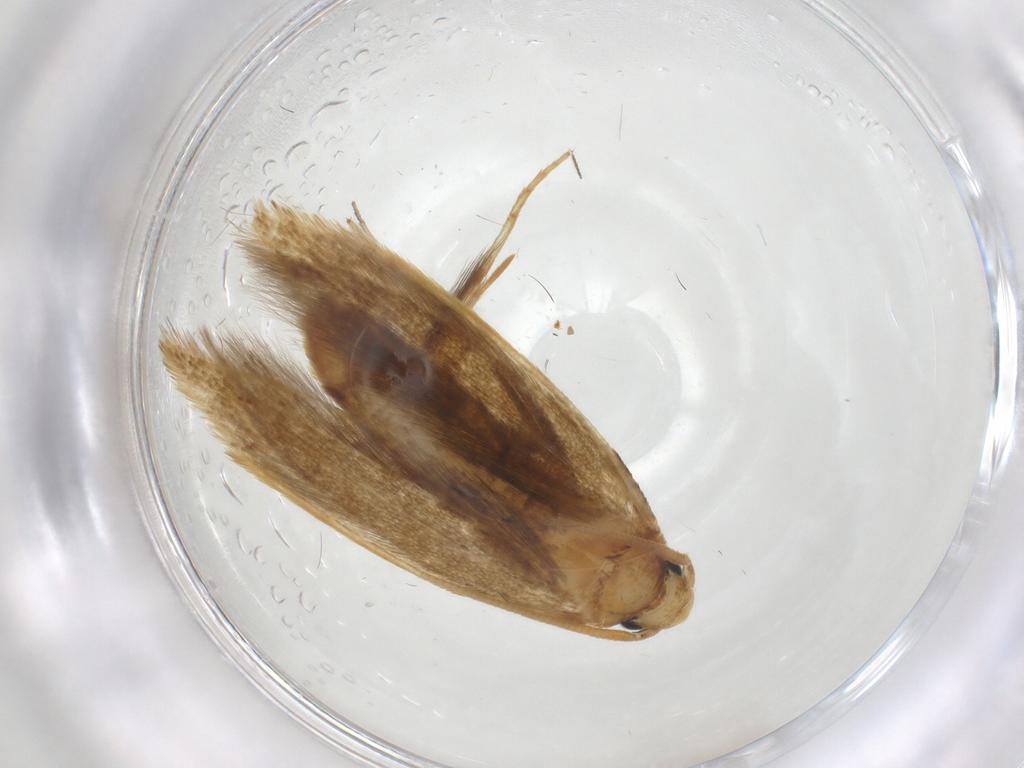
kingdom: Animalia
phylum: Arthropoda
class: Insecta
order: Lepidoptera
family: Tineidae
